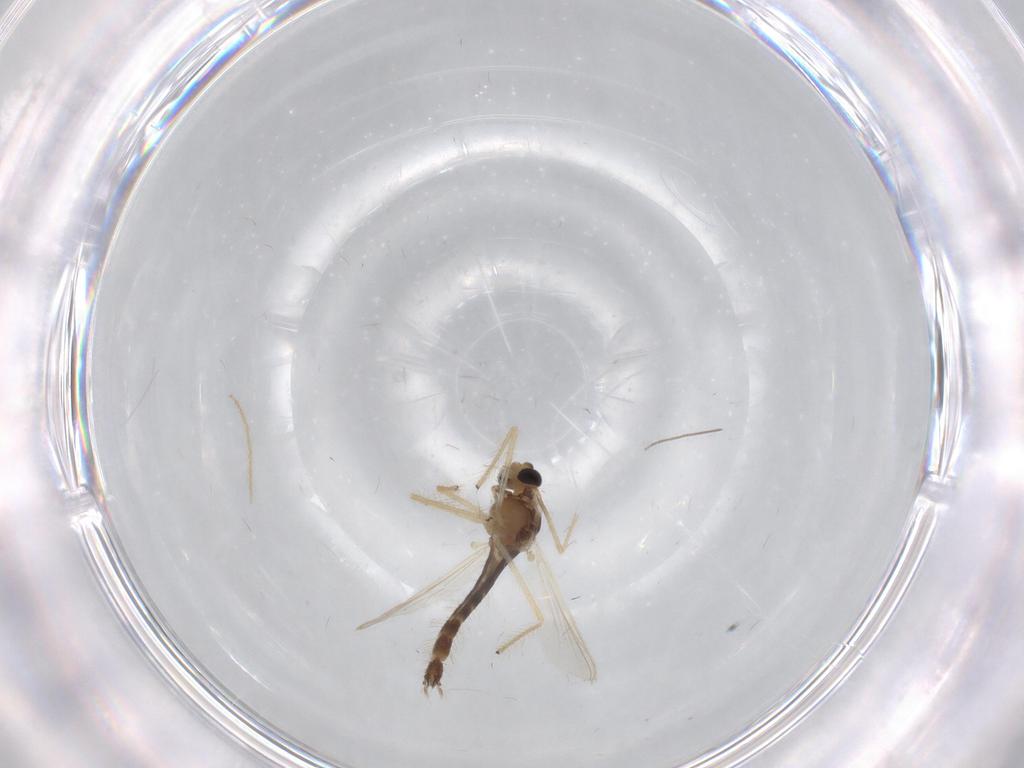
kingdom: Animalia
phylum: Arthropoda
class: Insecta
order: Diptera
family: Chironomidae
